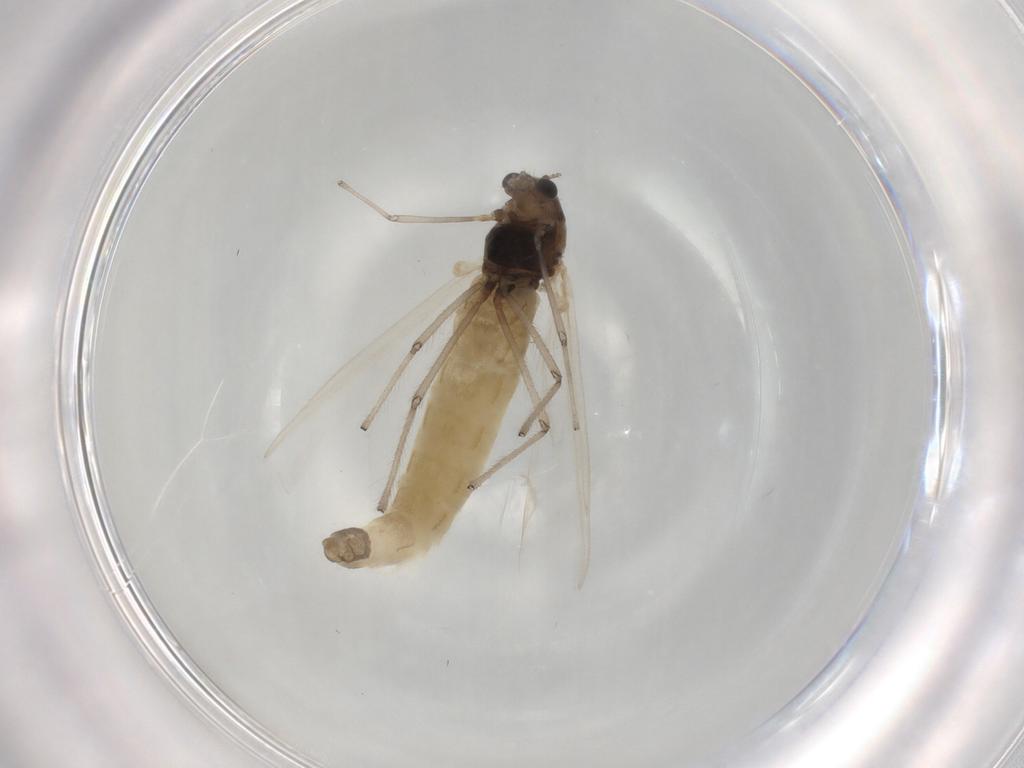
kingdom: Animalia
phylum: Arthropoda
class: Insecta
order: Diptera
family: Chironomidae
